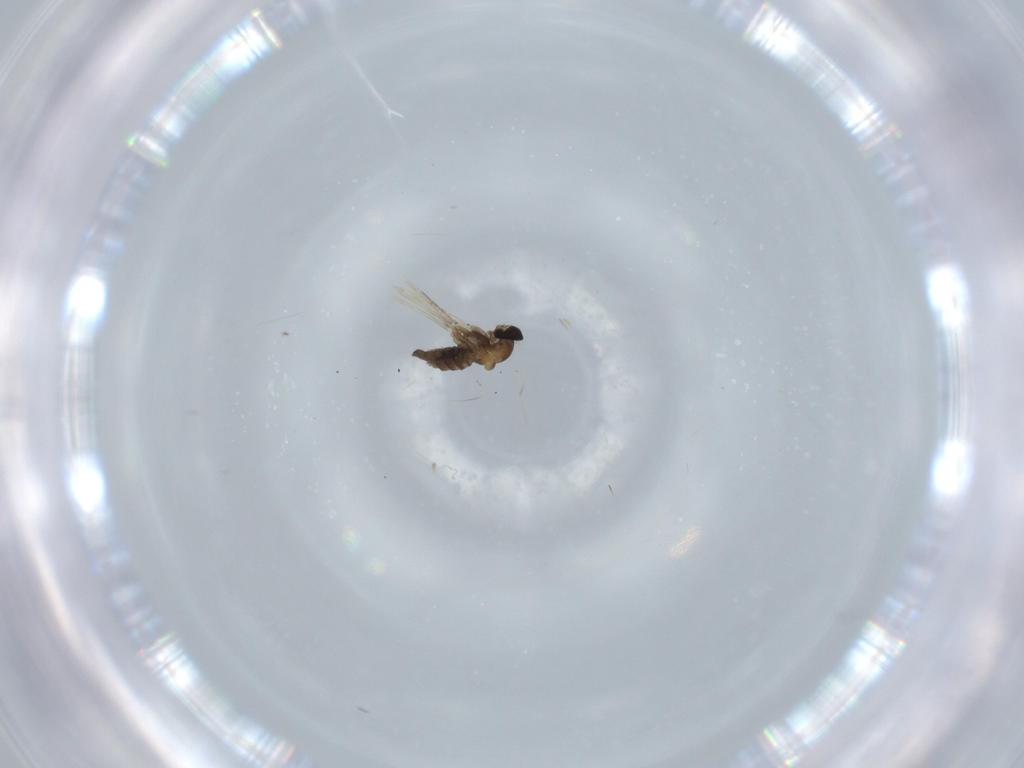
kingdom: Animalia
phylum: Arthropoda
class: Insecta
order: Diptera
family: Cecidomyiidae
